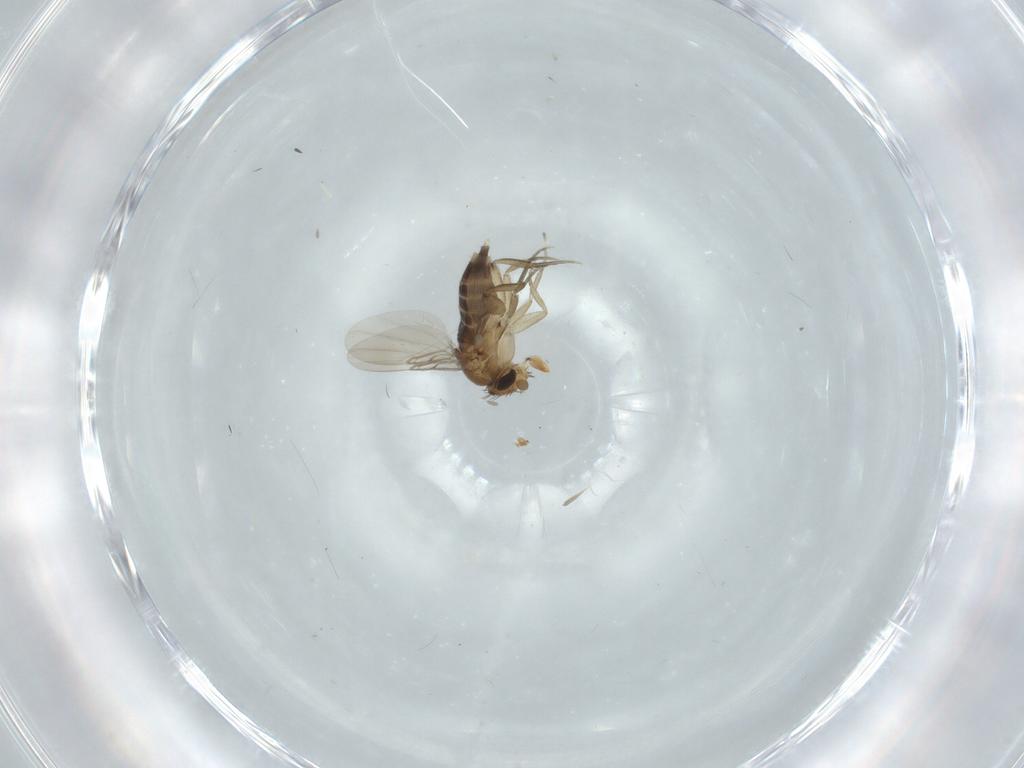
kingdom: Animalia
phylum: Arthropoda
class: Insecta
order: Diptera
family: Phoridae
